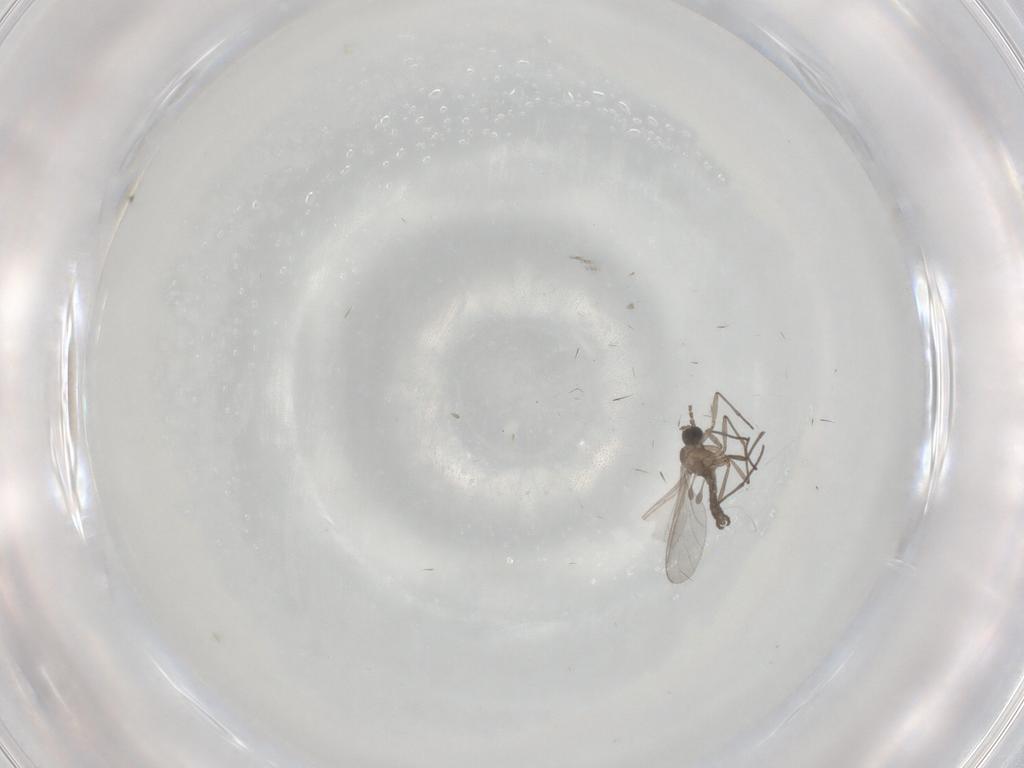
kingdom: Animalia
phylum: Arthropoda
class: Insecta
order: Diptera
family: Sciaridae
